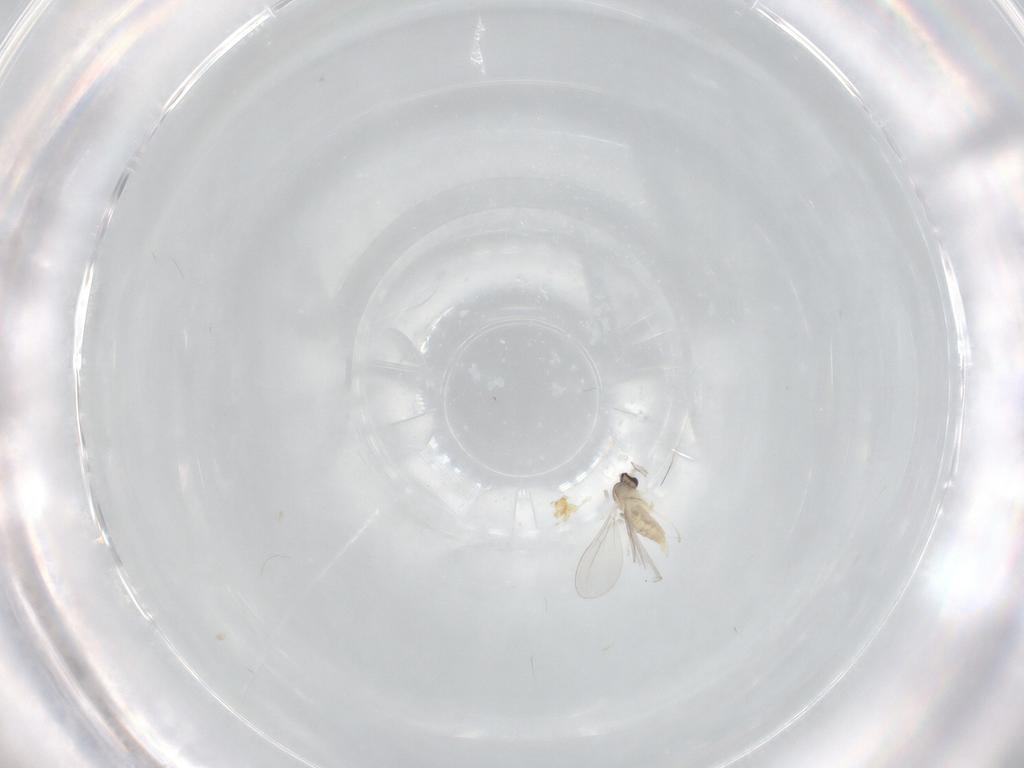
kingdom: Animalia
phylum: Arthropoda
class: Insecta
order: Diptera
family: Cecidomyiidae
